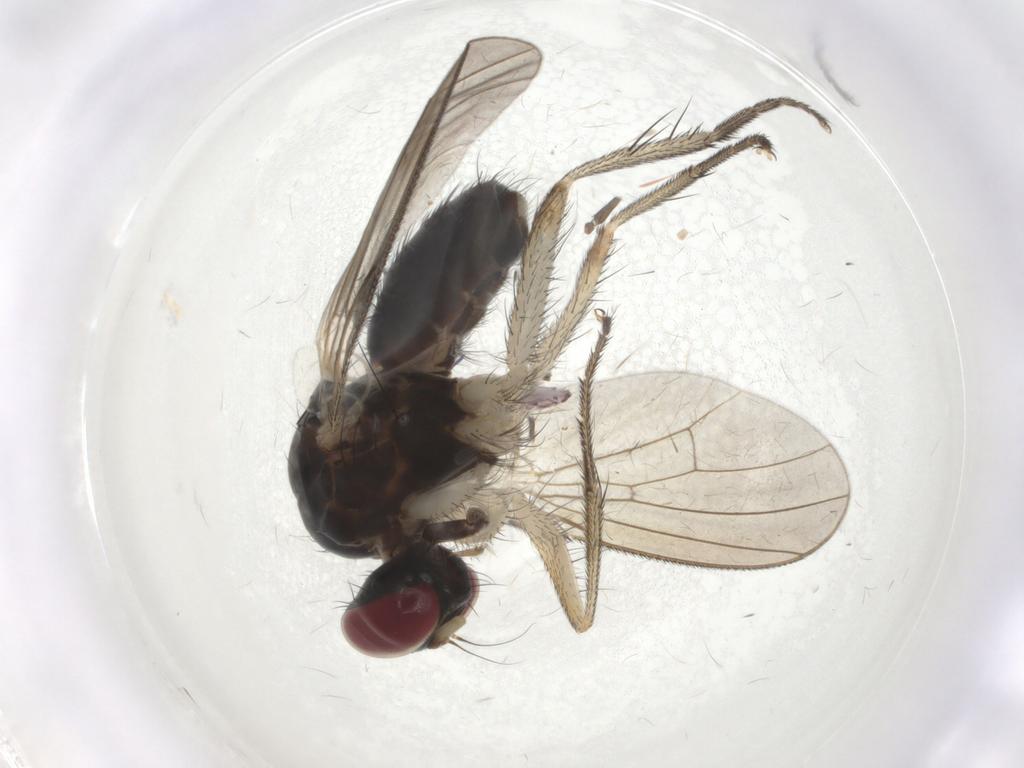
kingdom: Animalia
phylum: Arthropoda
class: Insecta
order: Diptera
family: Muscidae
